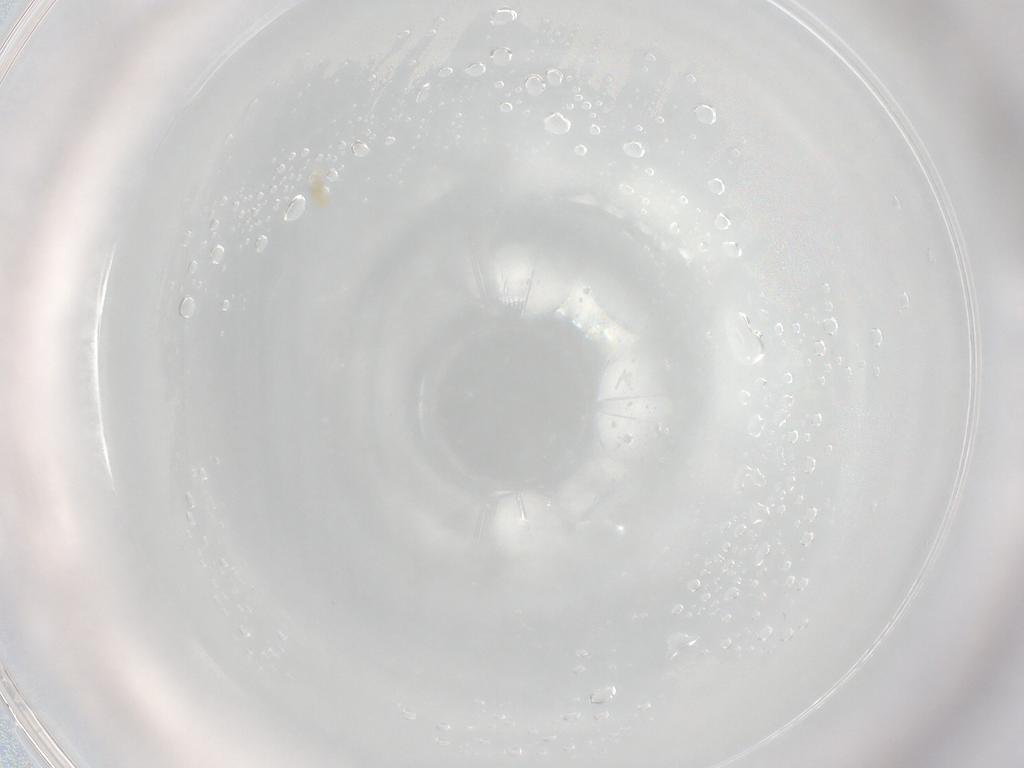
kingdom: Animalia
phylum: Arthropoda
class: Arachnida
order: Trombidiformes
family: Eupodidae
